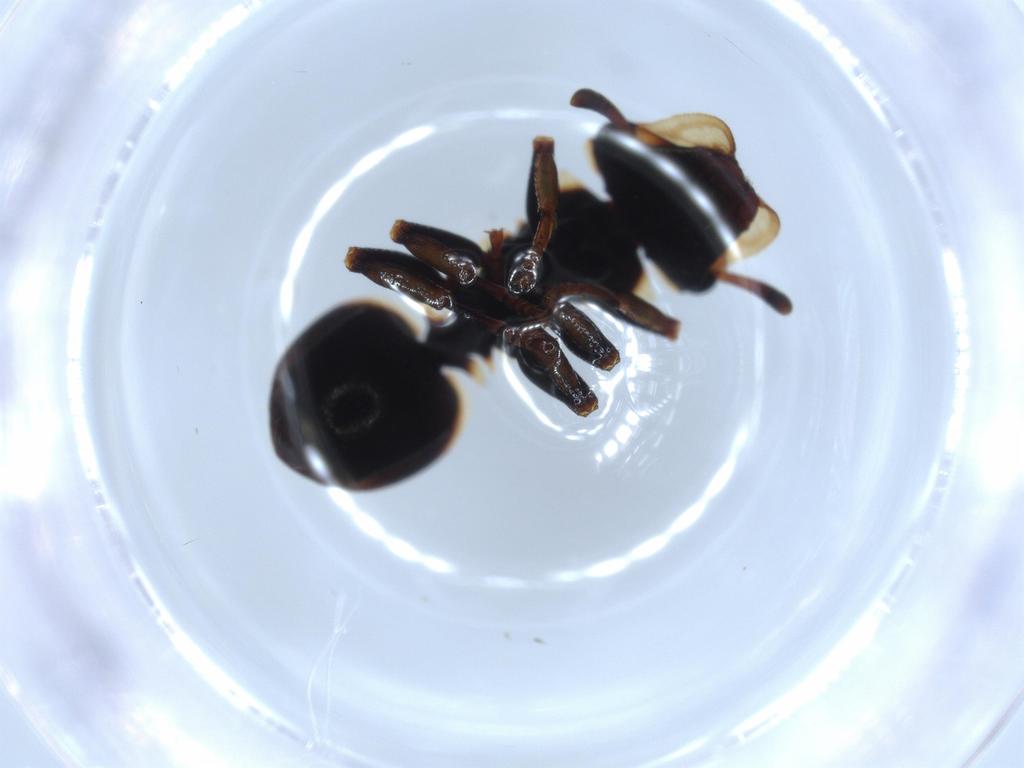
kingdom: Animalia
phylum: Arthropoda
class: Insecta
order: Hymenoptera
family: Formicidae
